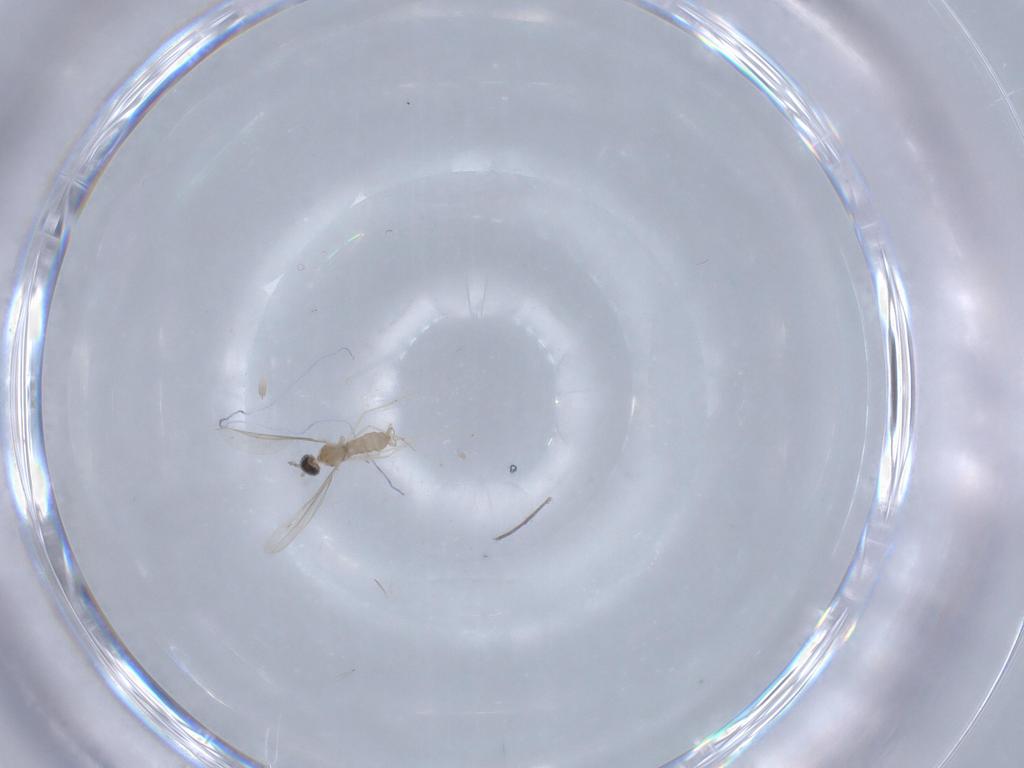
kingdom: Animalia
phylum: Arthropoda
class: Insecta
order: Diptera
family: Cecidomyiidae
